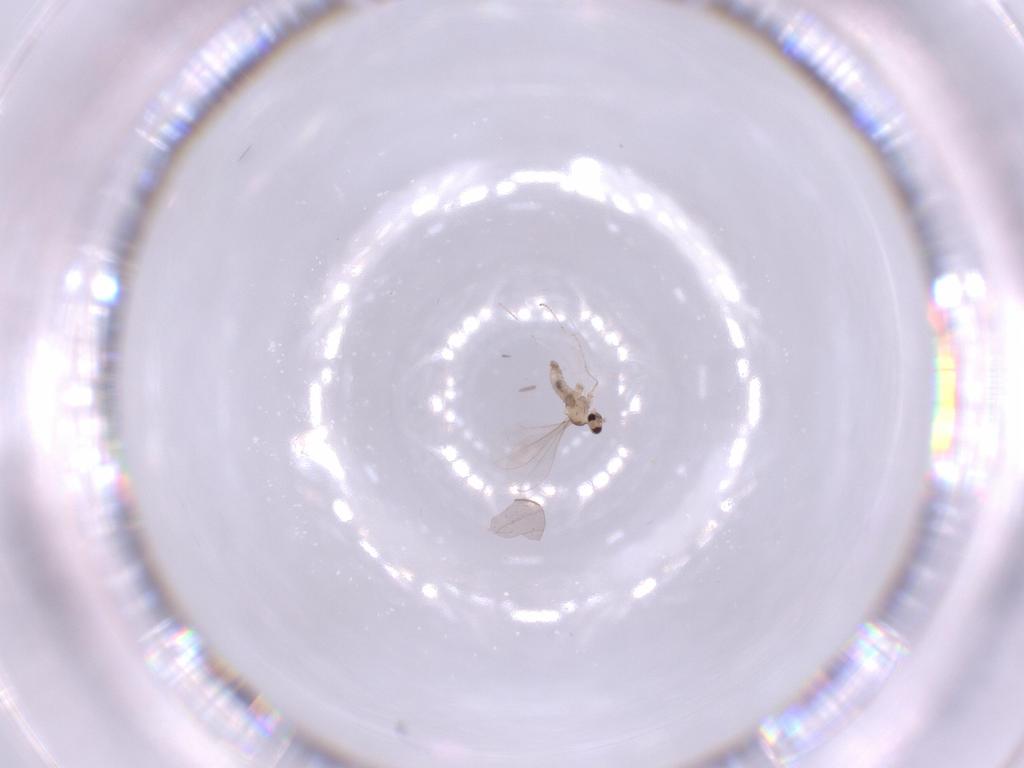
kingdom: Animalia
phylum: Arthropoda
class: Insecta
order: Diptera
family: Cecidomyiidae
